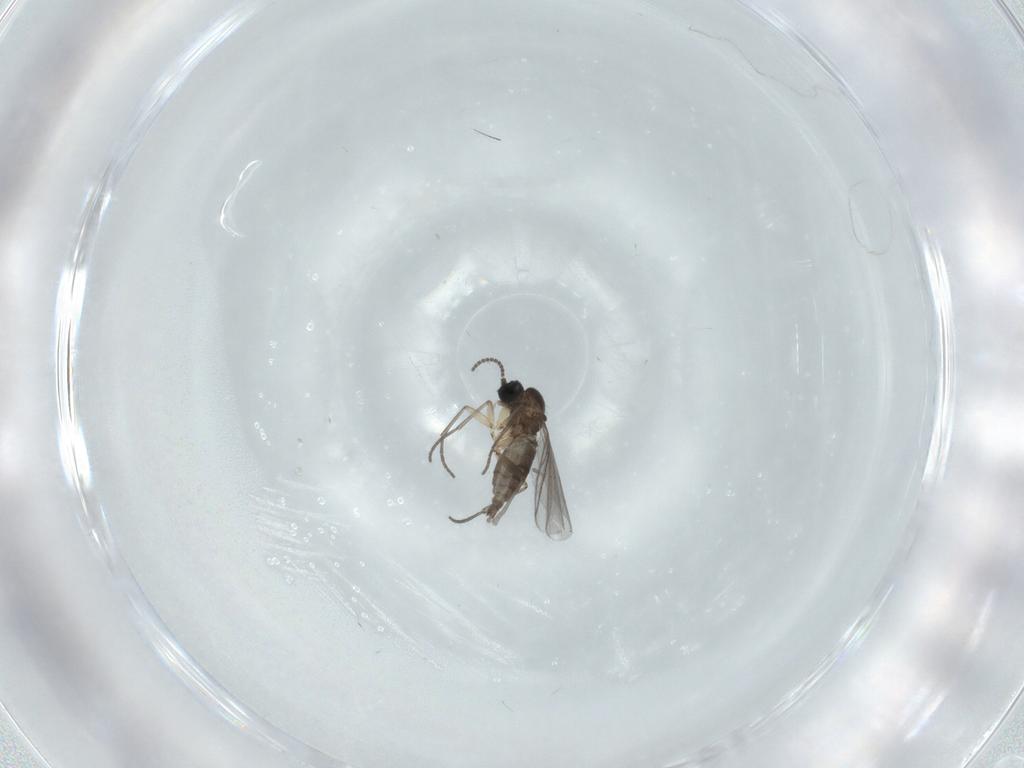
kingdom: Animalia
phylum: Arthropoda
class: Insecta
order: Diptera
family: Sciaridae
